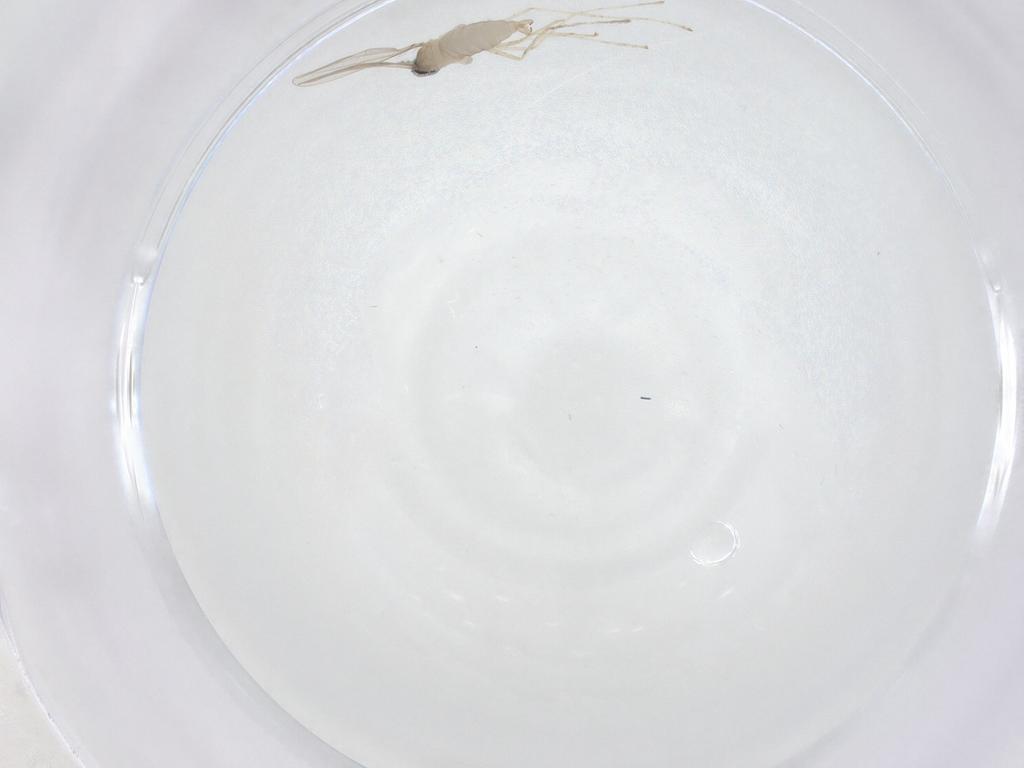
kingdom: Animalia
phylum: Arthropoda
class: Insecta
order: Diptera
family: Cecidomyiidae
